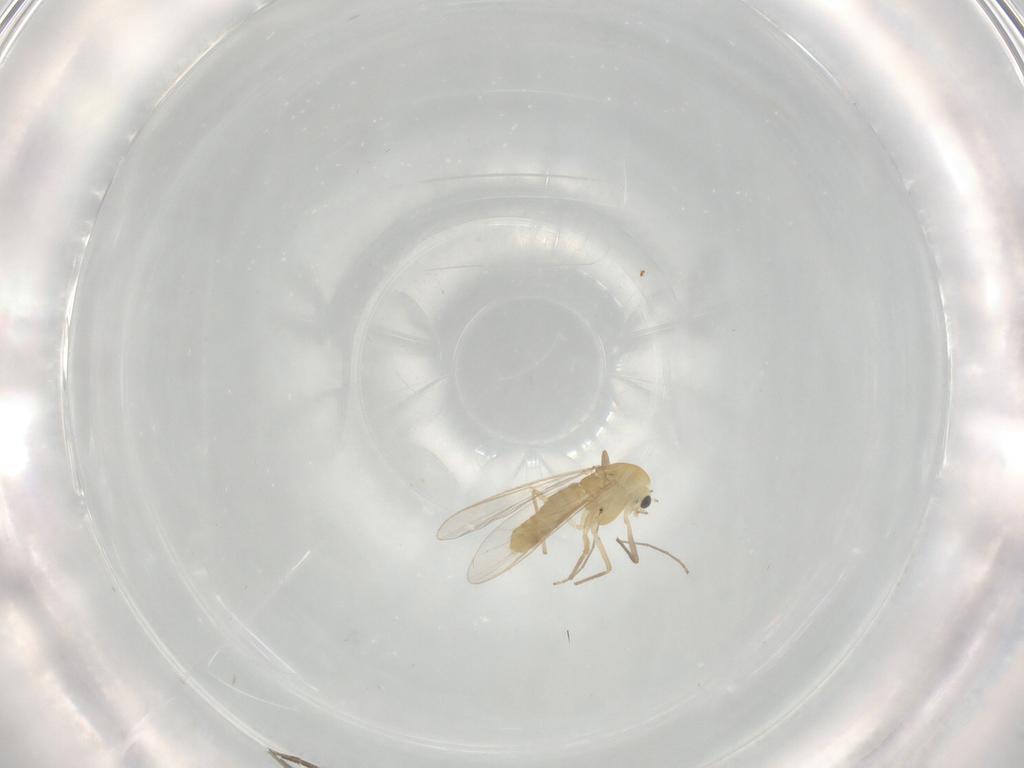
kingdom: Animalia
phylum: Arthropoda
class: Insecta
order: Diptera
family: Chironomidae
